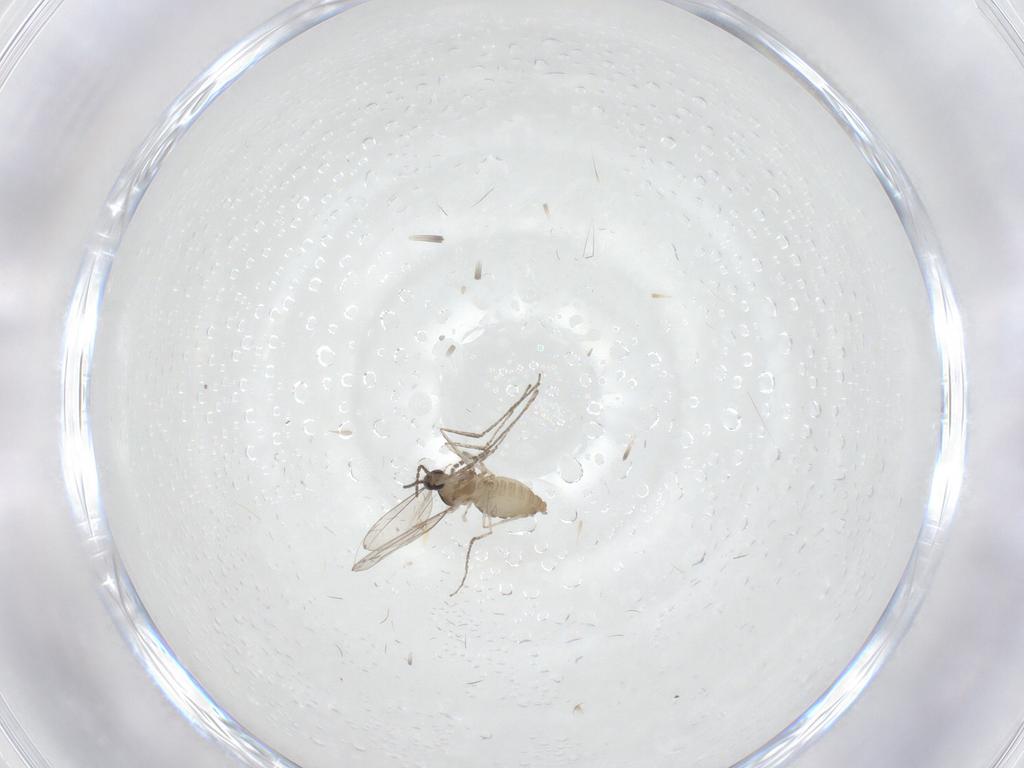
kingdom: Animalia
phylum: Arthropoda
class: Insecta
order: Diptera
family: Cecidomyiidae
